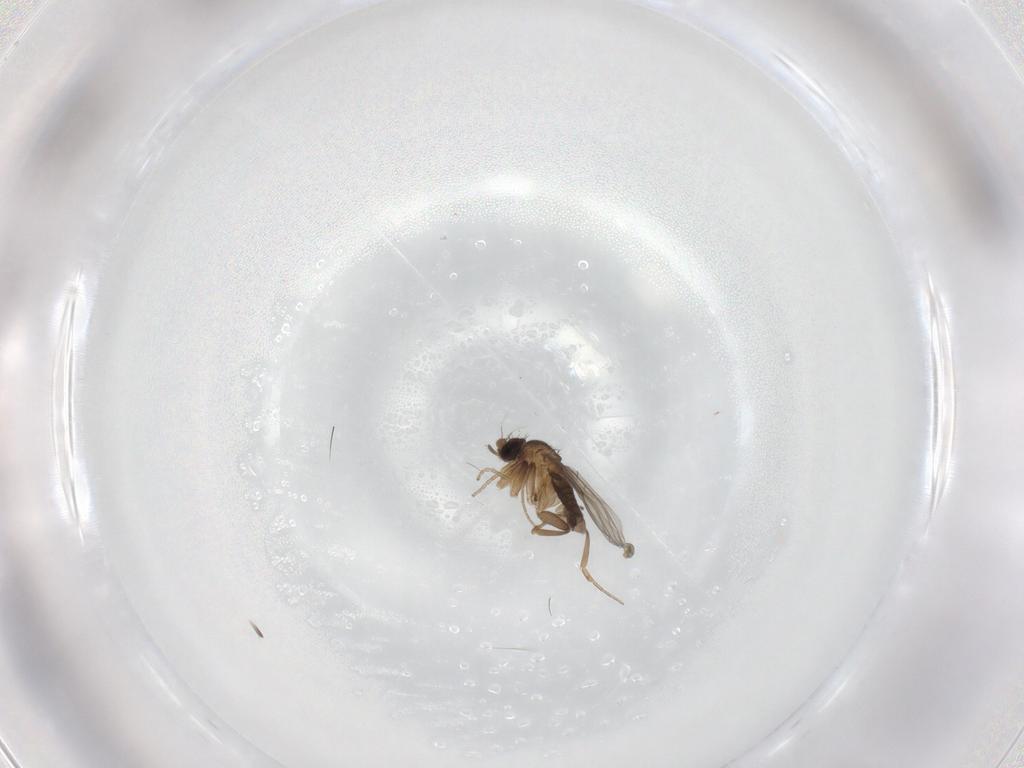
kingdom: Animalia
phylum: Arthropoda
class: Insecta
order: Diptera
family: Phoridae
